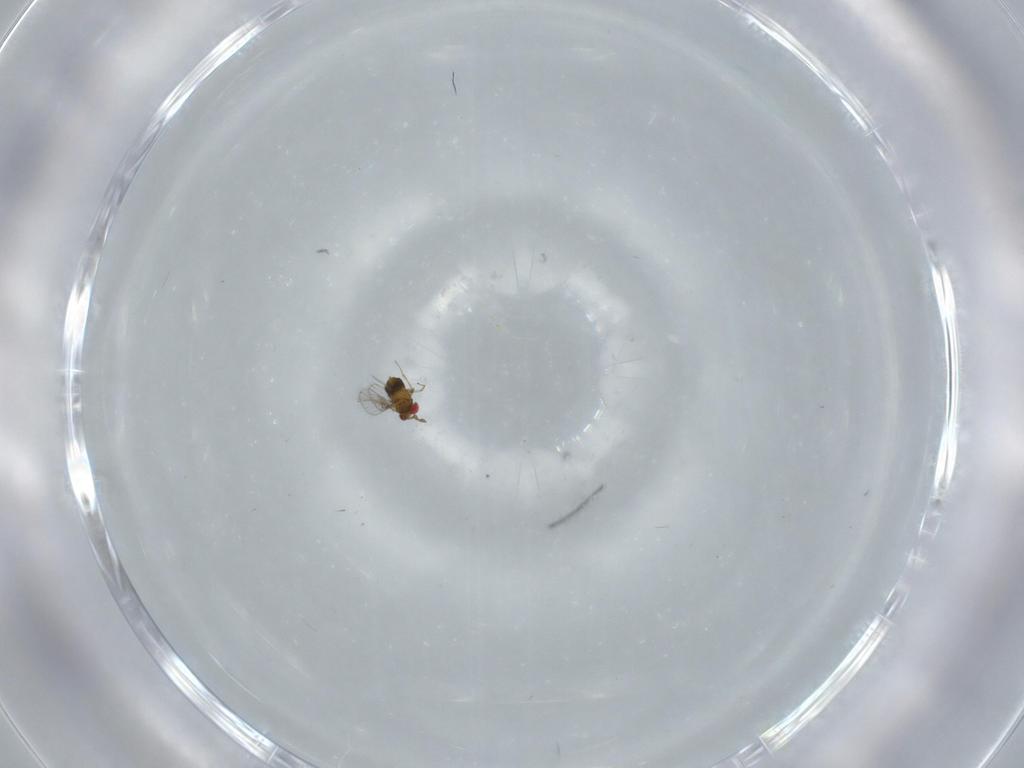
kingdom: Animalia
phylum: Arthropoda
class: Insecta
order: Hymenoptera
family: Trichogrammatidae
